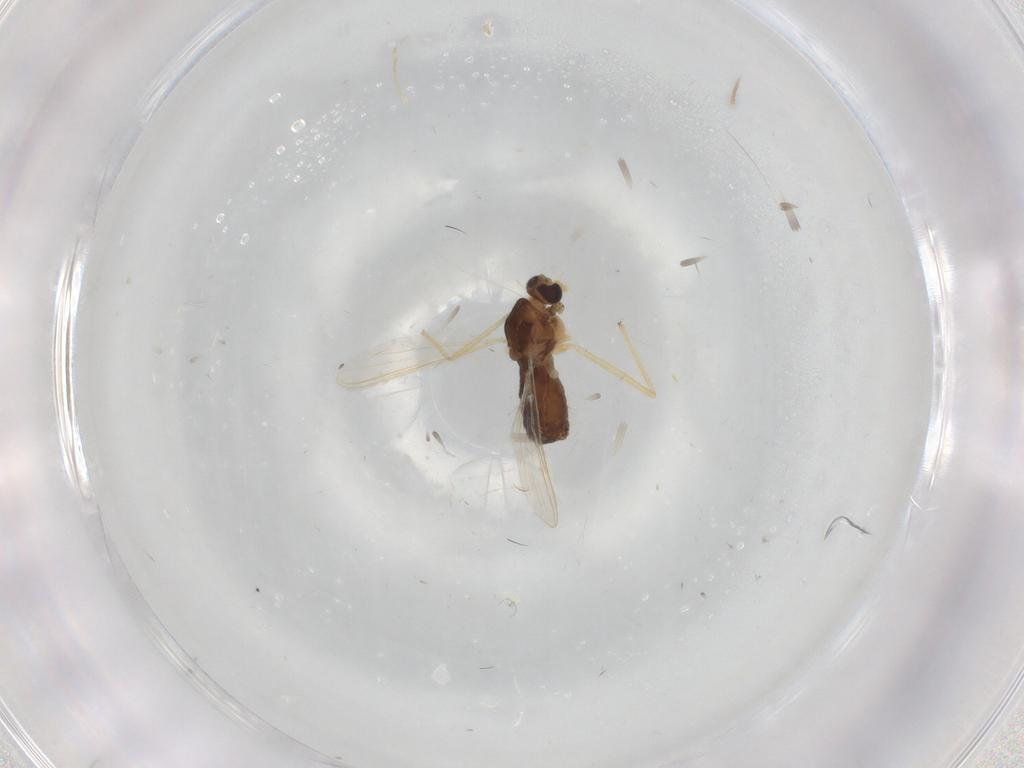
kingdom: Animalia
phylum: Arthropoda
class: Insecta
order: Diptera
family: Chironomidae
